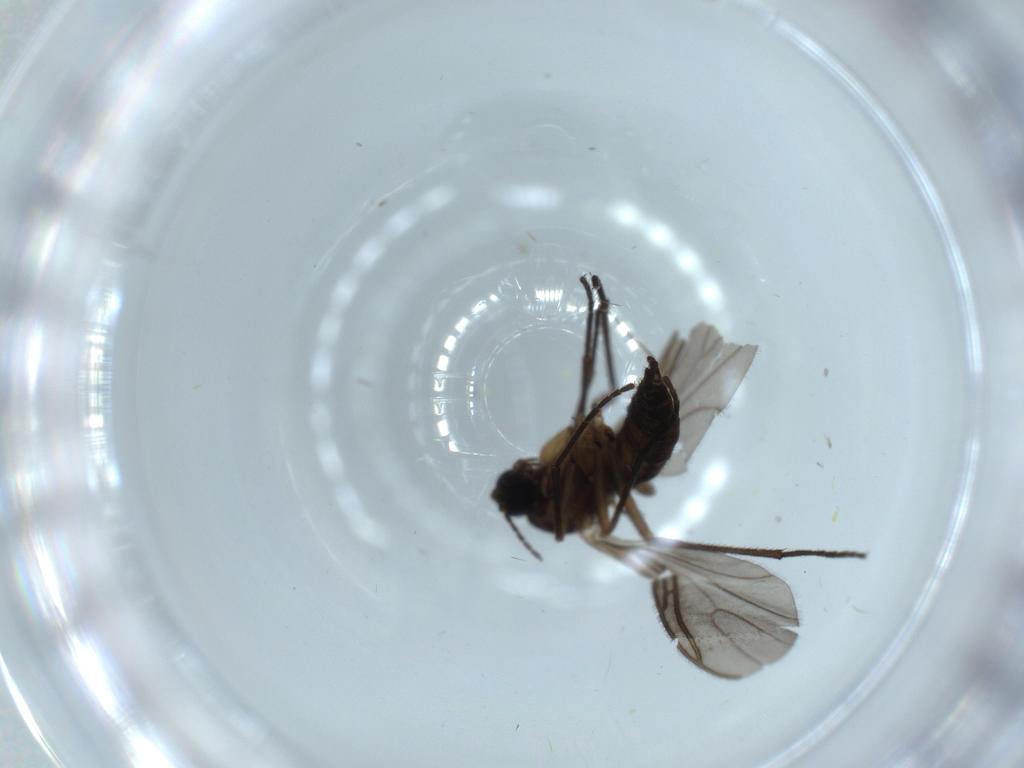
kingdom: Animalia
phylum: Arthropoda
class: Insecta
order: Diptera
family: Sciaridae
